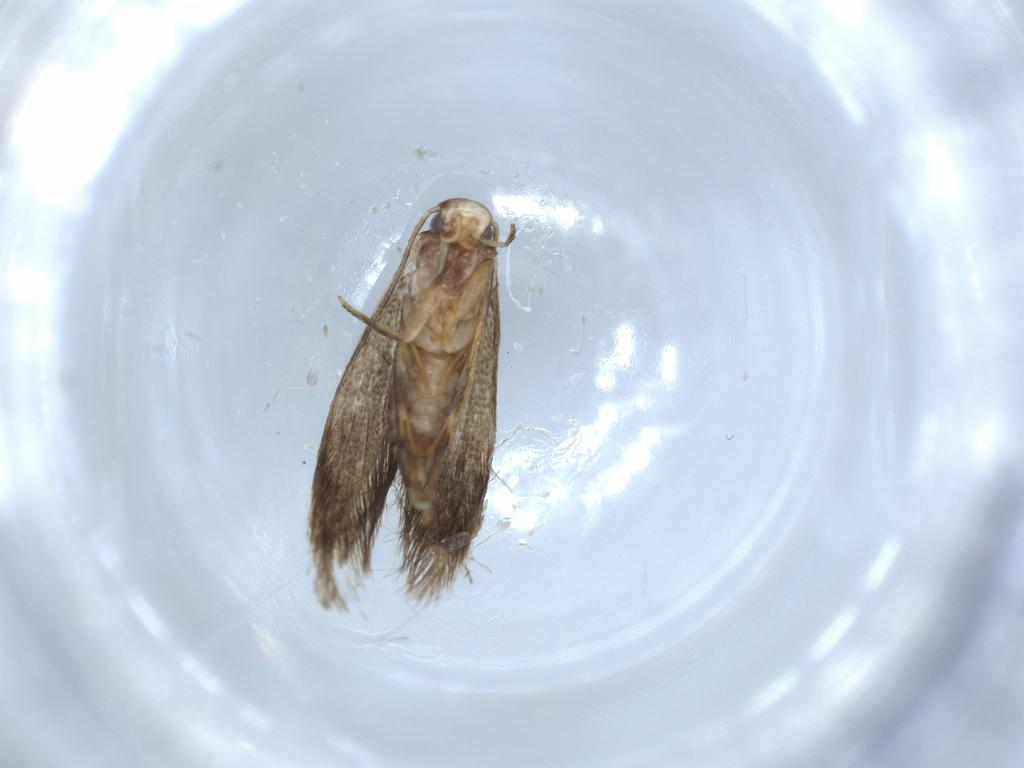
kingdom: Animalia
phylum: Arthropoda
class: Insecta
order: Lepidoptera
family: Tineidae
